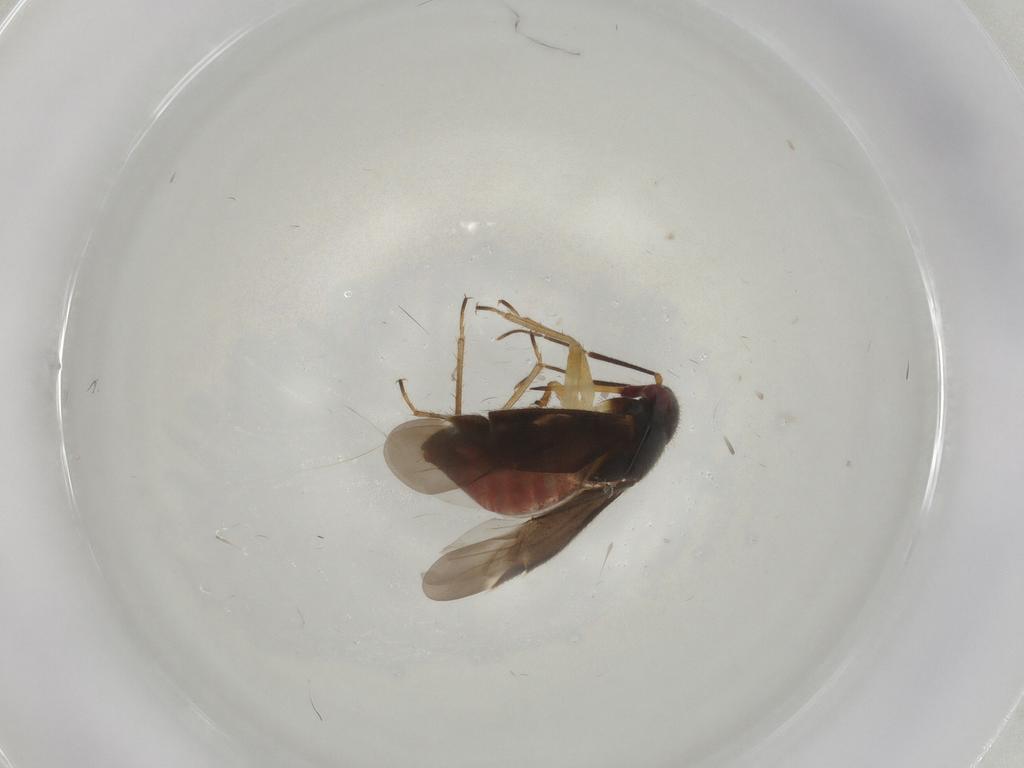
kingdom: Animalia
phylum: Arthropoda
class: Insecta
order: Hemiptera
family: Miridae
